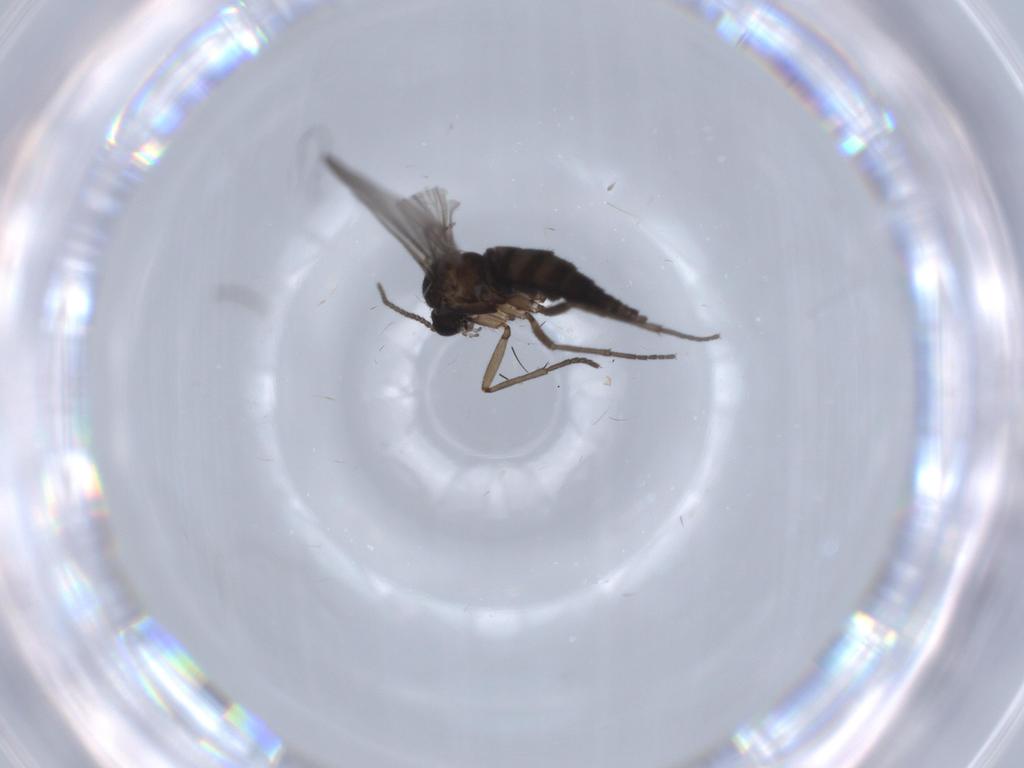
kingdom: Animalia
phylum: Arthropoda
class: Insecta
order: Diptera
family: Sciaridae
